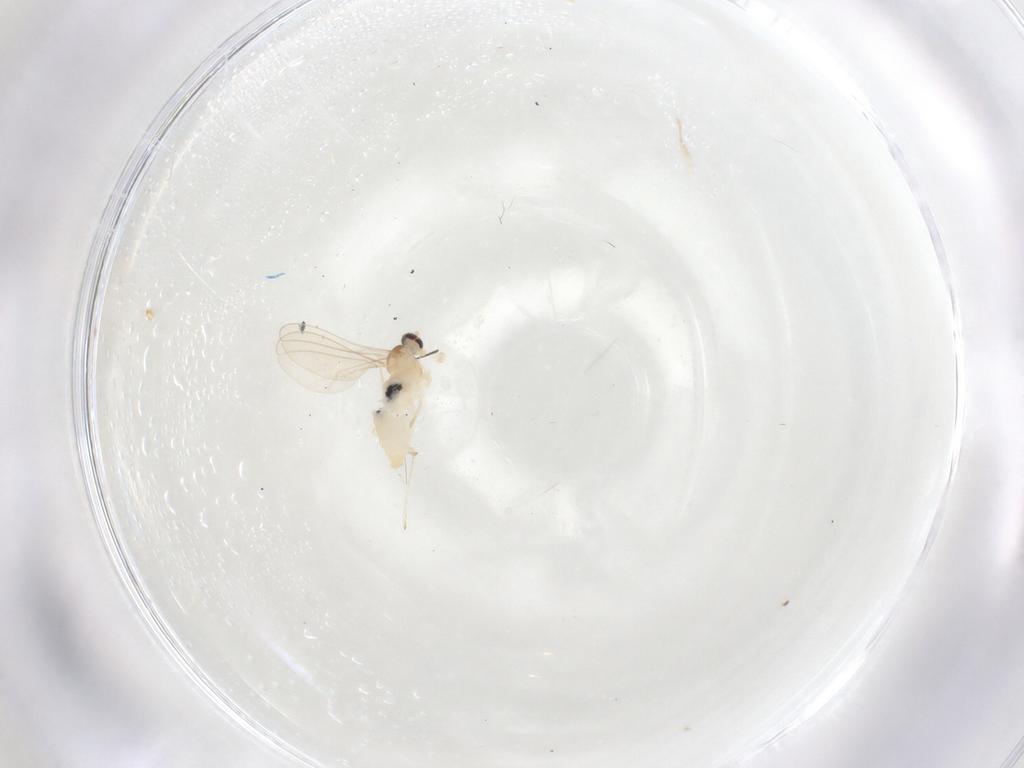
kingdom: Animalia
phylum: Arthropoda
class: Insecta
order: Diptera
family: Cecidomyiidae
